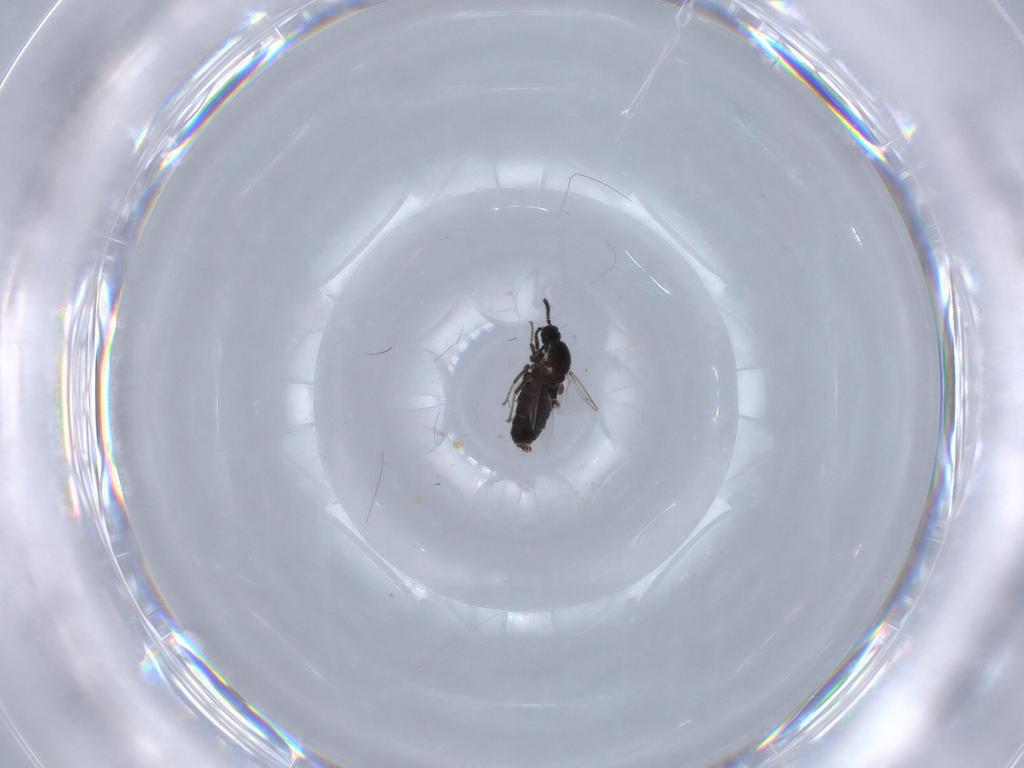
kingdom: Animalia
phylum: Arthropoda
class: Insecta
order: Diptera
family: Scatopsidae
